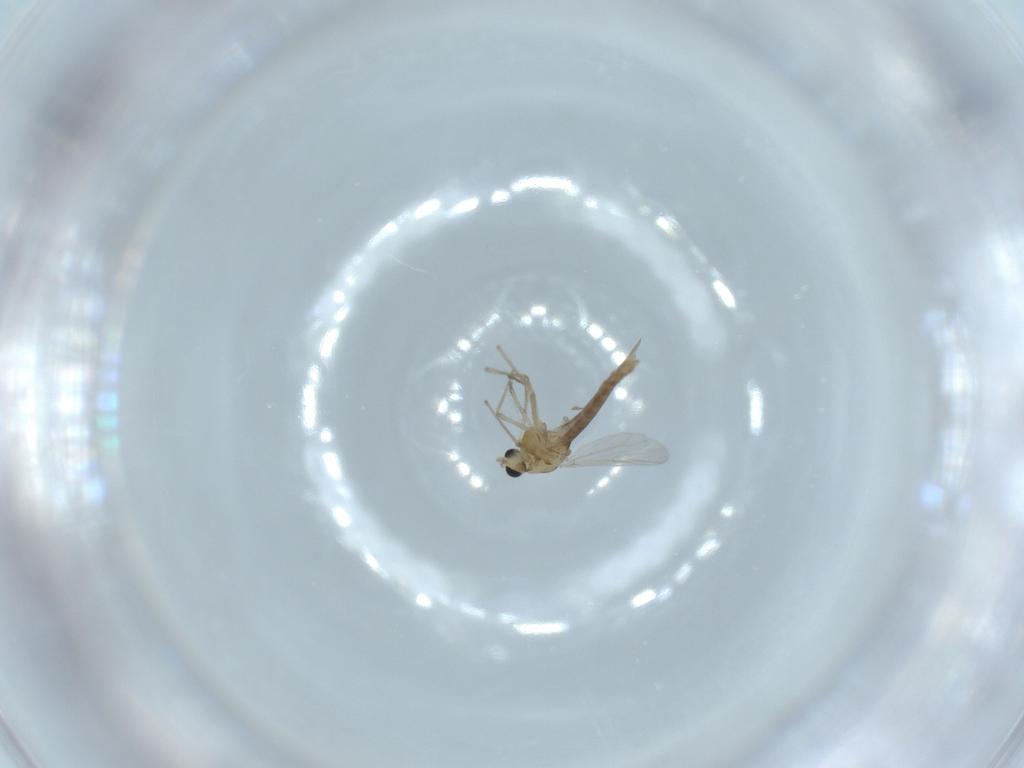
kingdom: Animalia
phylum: Arthropoda
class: Insecta
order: Diptera
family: Chironomidae
